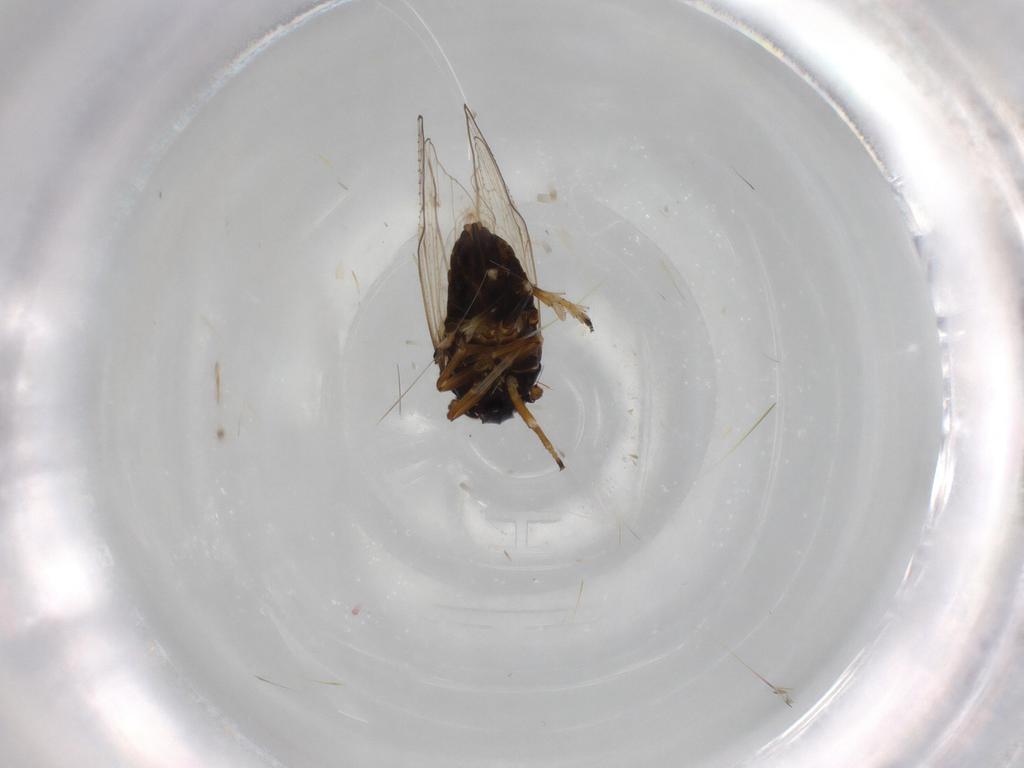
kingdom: Animalia
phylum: Arthropoda
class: Insecta
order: Hemiptera
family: Delphacidae
